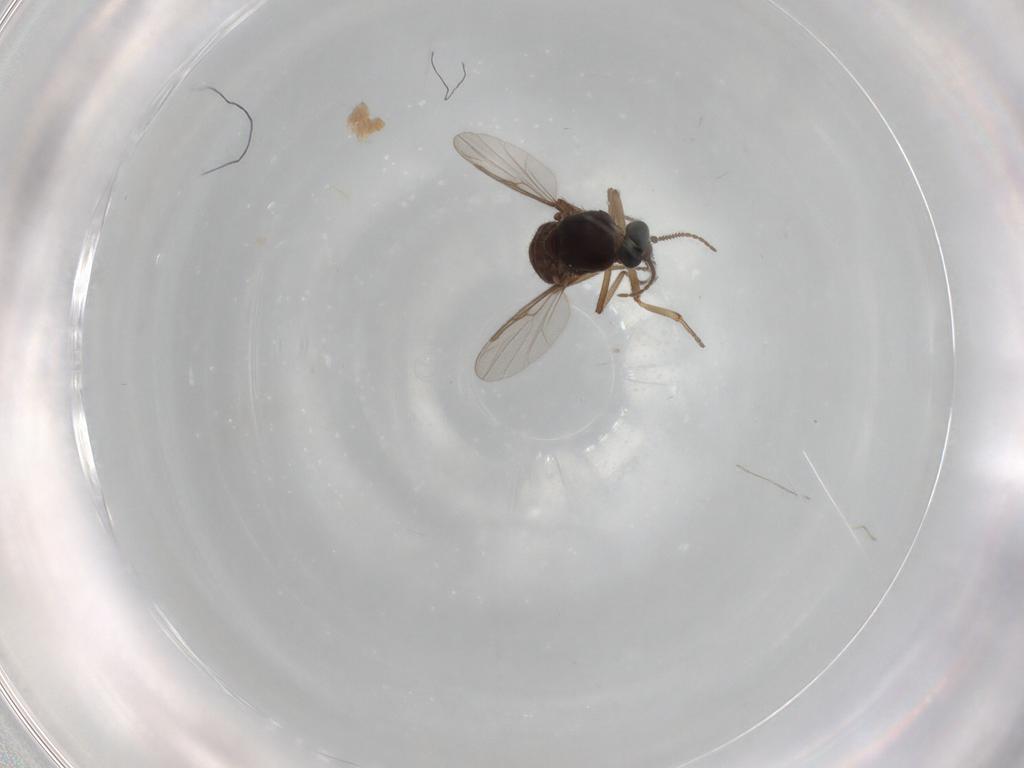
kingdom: Animalia
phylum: Arthropoda
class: Insecta
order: Diptera
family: Ceratopogonidae
